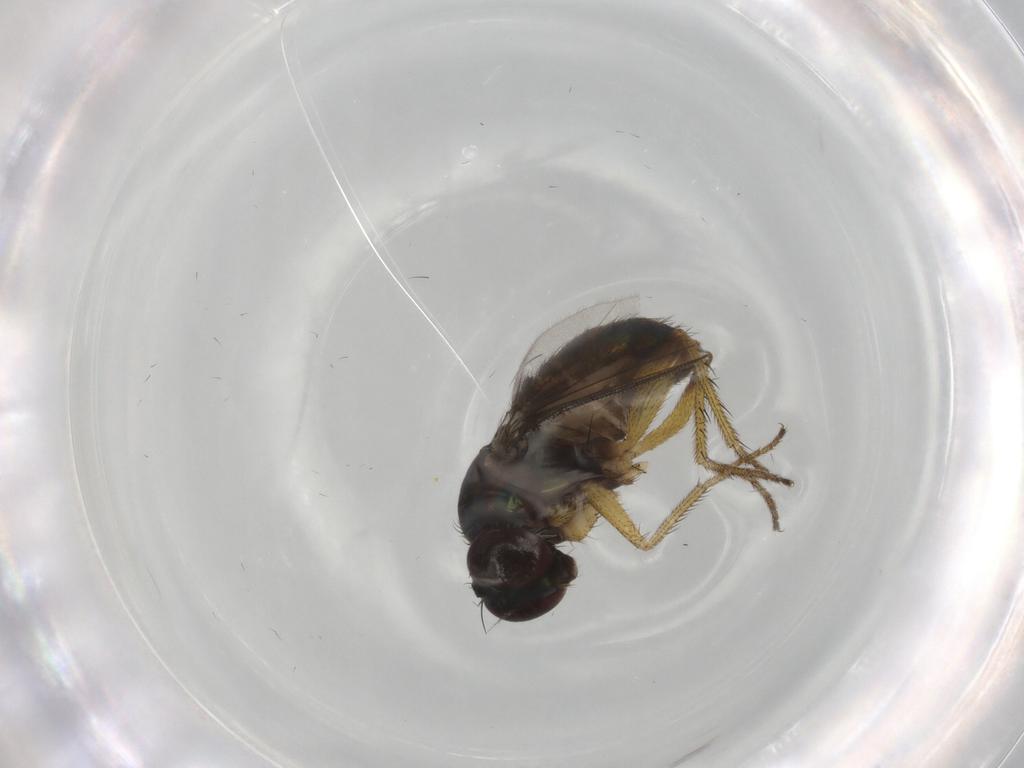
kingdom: Animalia
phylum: Arthropoda
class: Insecta
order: Diptera
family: Dolichopodidae
